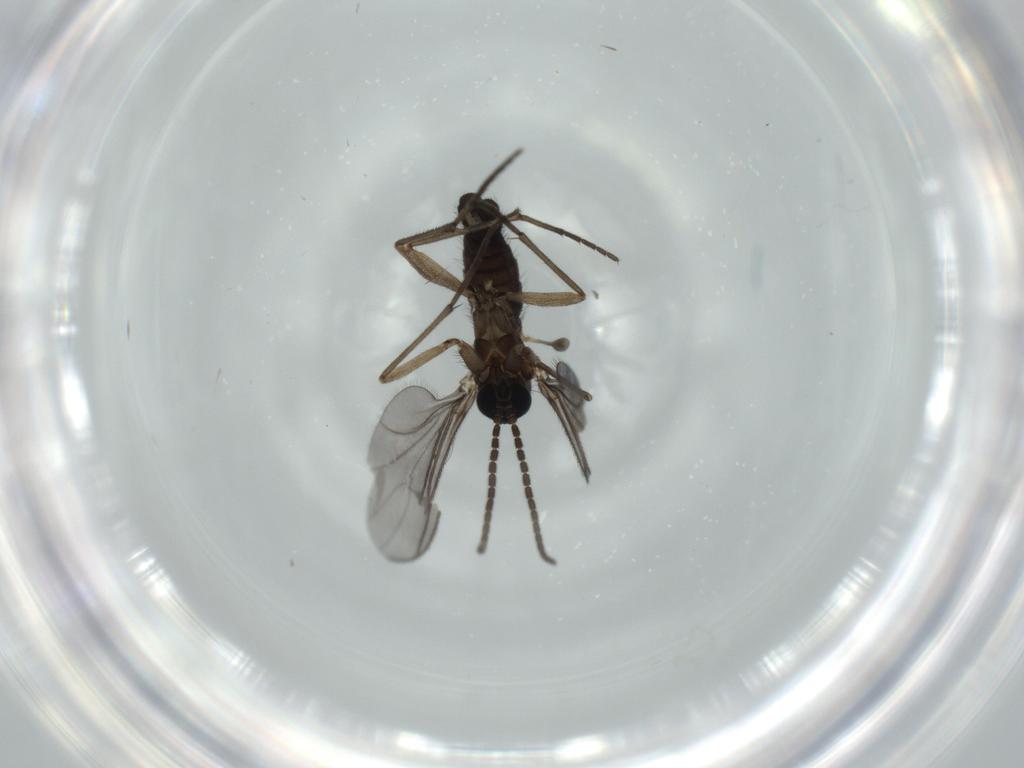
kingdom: Animalia
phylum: Arthropoda
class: Insecta
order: Diptera
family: Sciaridae
